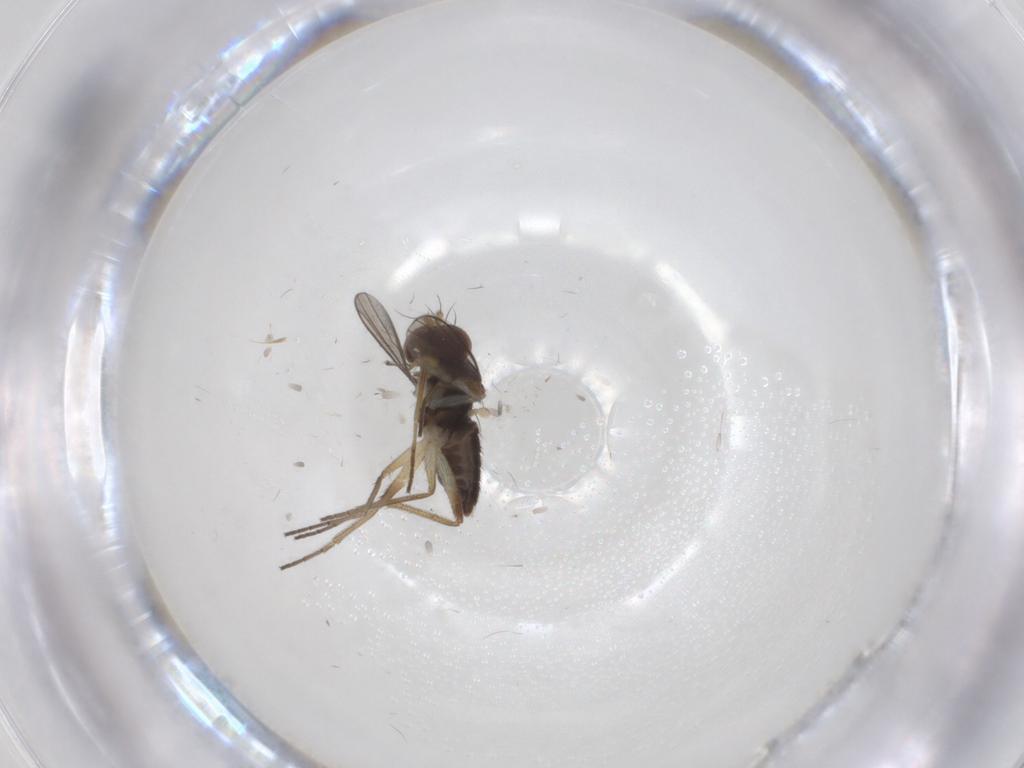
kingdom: Animalia
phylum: Arthropoda
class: Insecta
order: Diptera
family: Dolichopodidae
